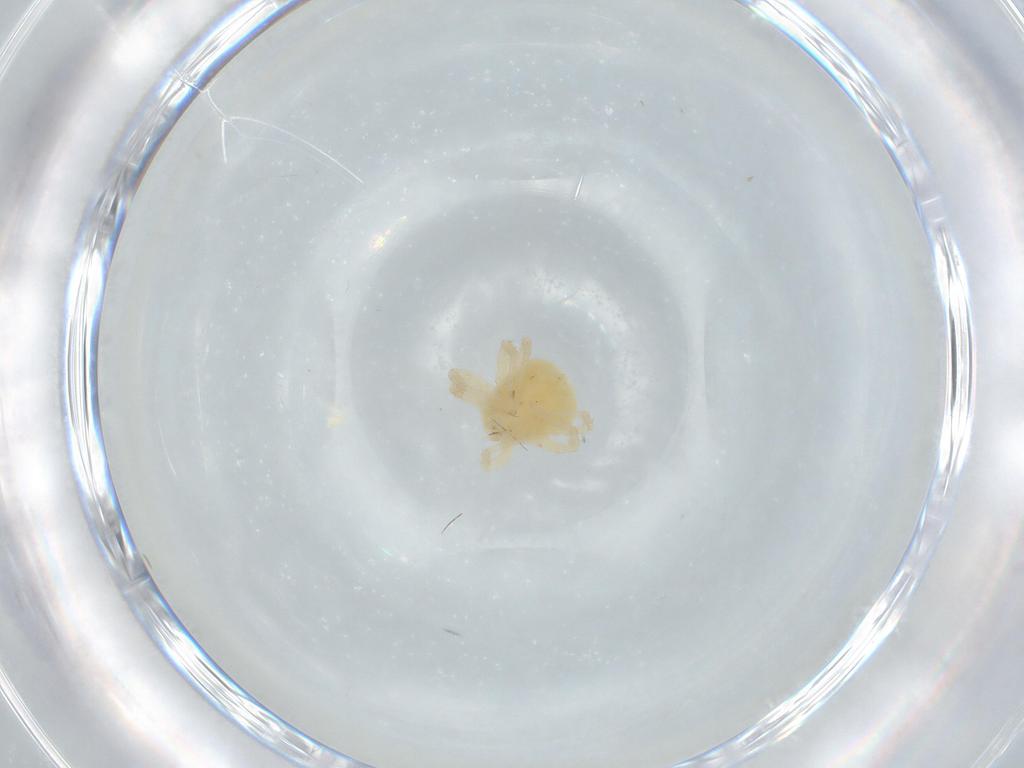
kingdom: Animalia
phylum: Arthropoda
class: Arachnida
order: Trombidiformes
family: Anystidae
